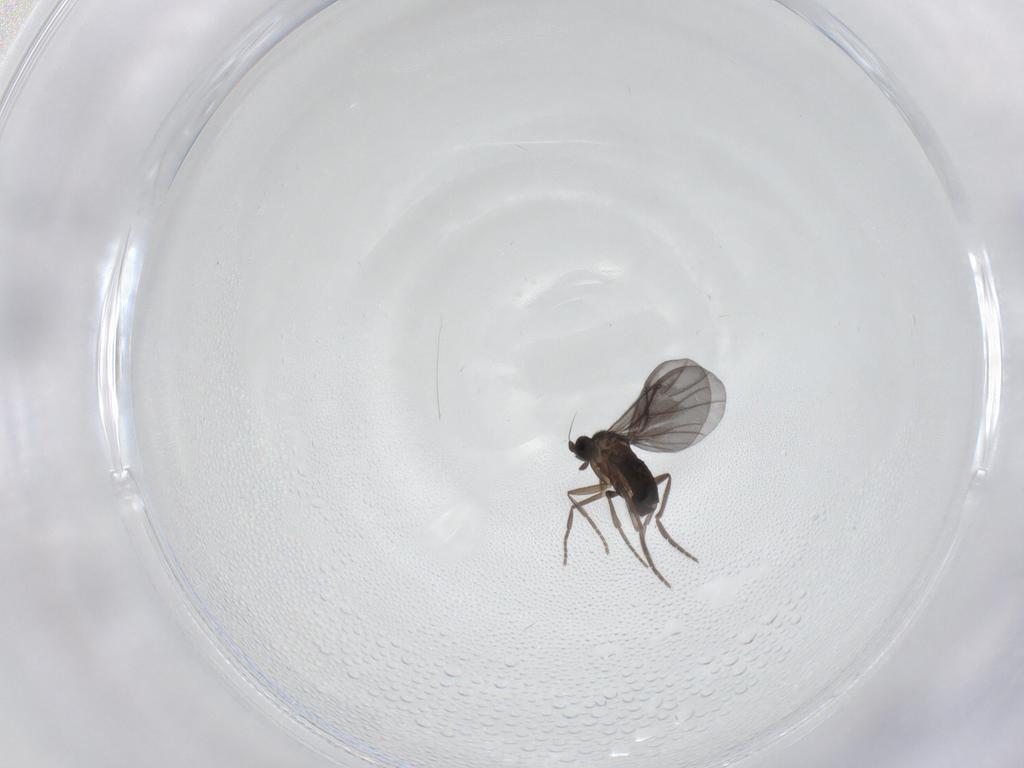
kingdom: Animalia
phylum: Arthropoda
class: Insecta
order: Diptera
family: Phoridae
